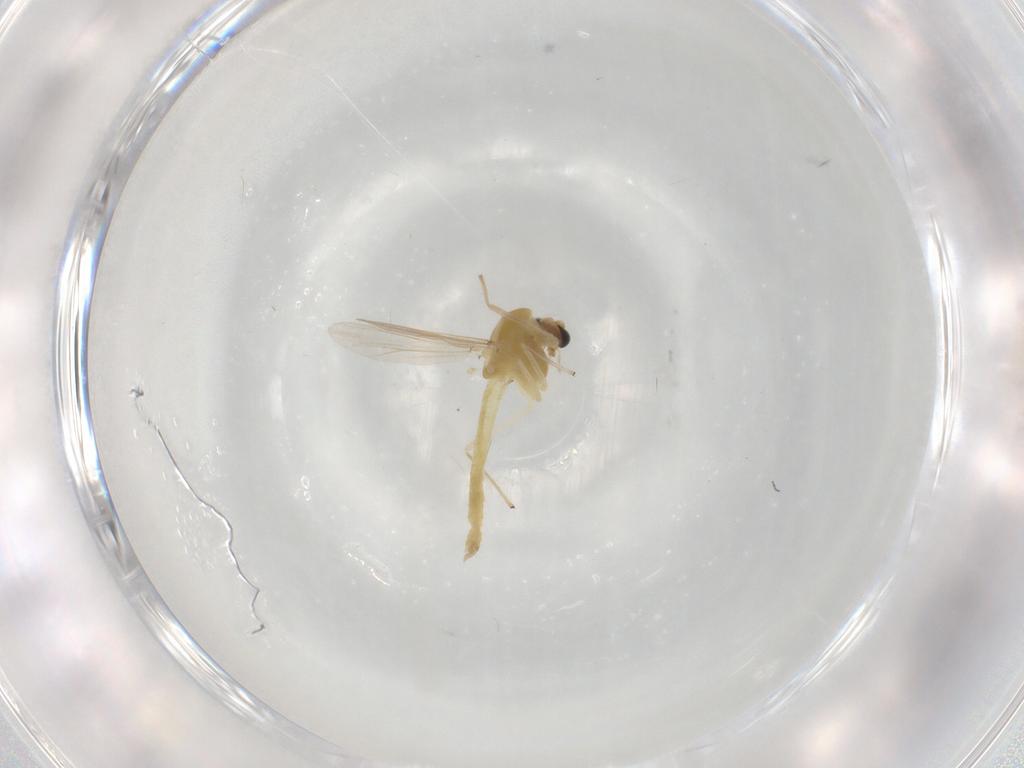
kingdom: Animalia
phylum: Arthropoda
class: Insecta
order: Diptera
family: Chironomidae
